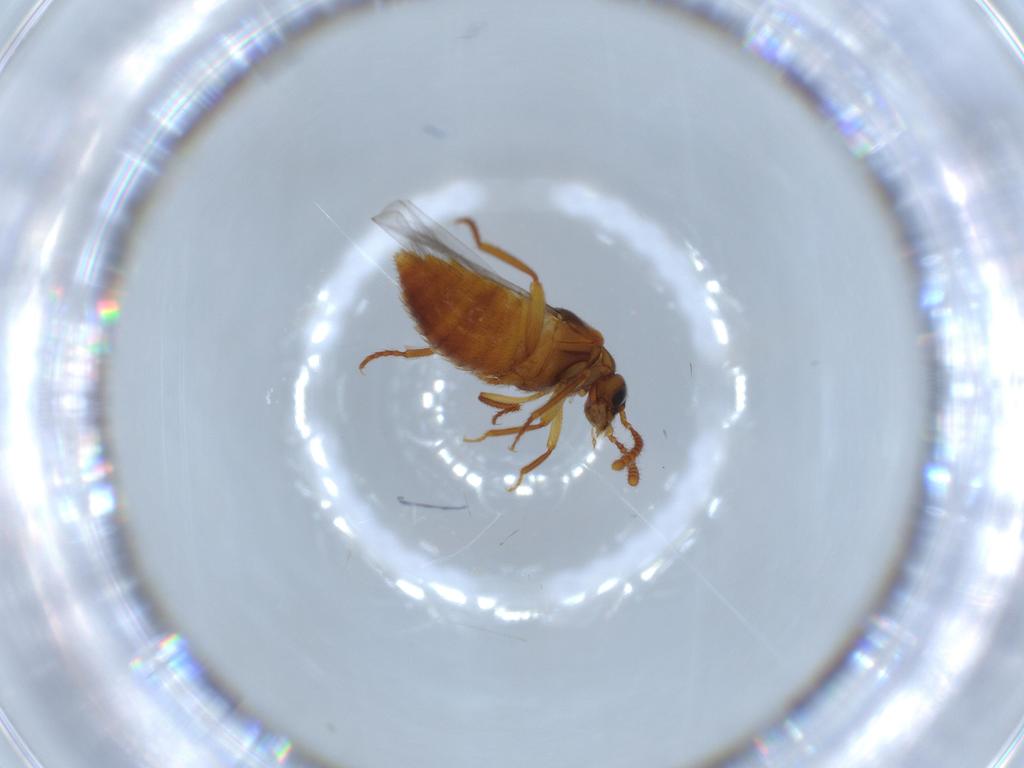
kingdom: Animalia
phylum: Arthropoda
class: Insecta
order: Coleoptera
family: Staphylinidae
